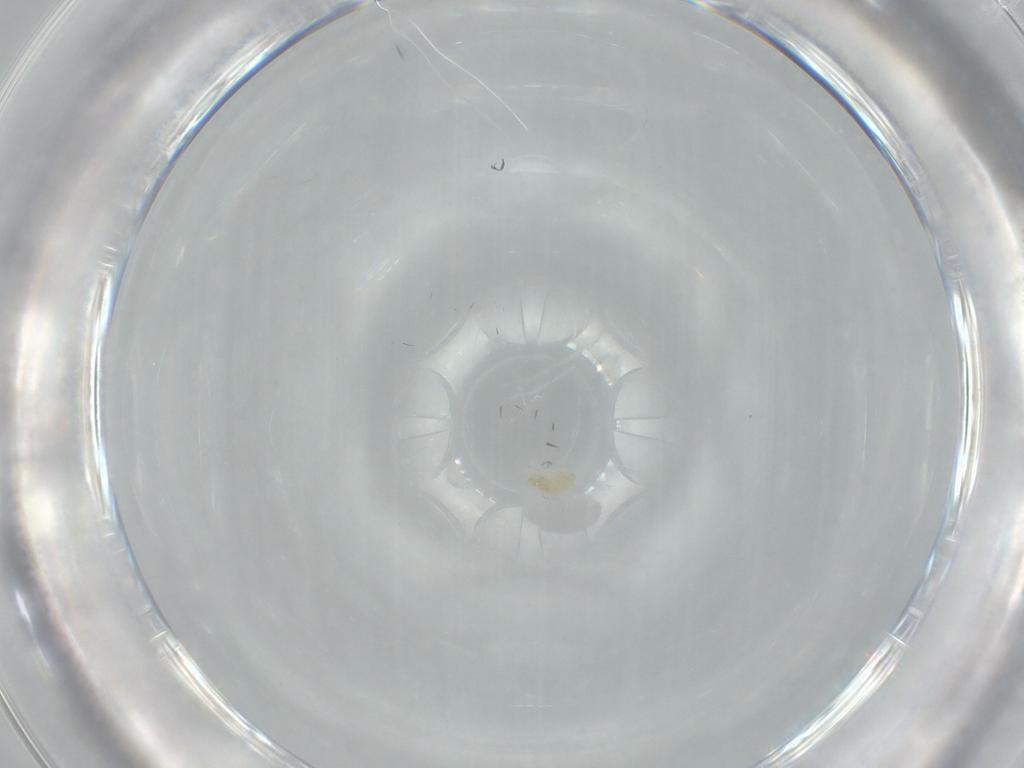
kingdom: Animalia
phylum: Arthropoda
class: Arachnida
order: Trombidiformes
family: Eupodidae
